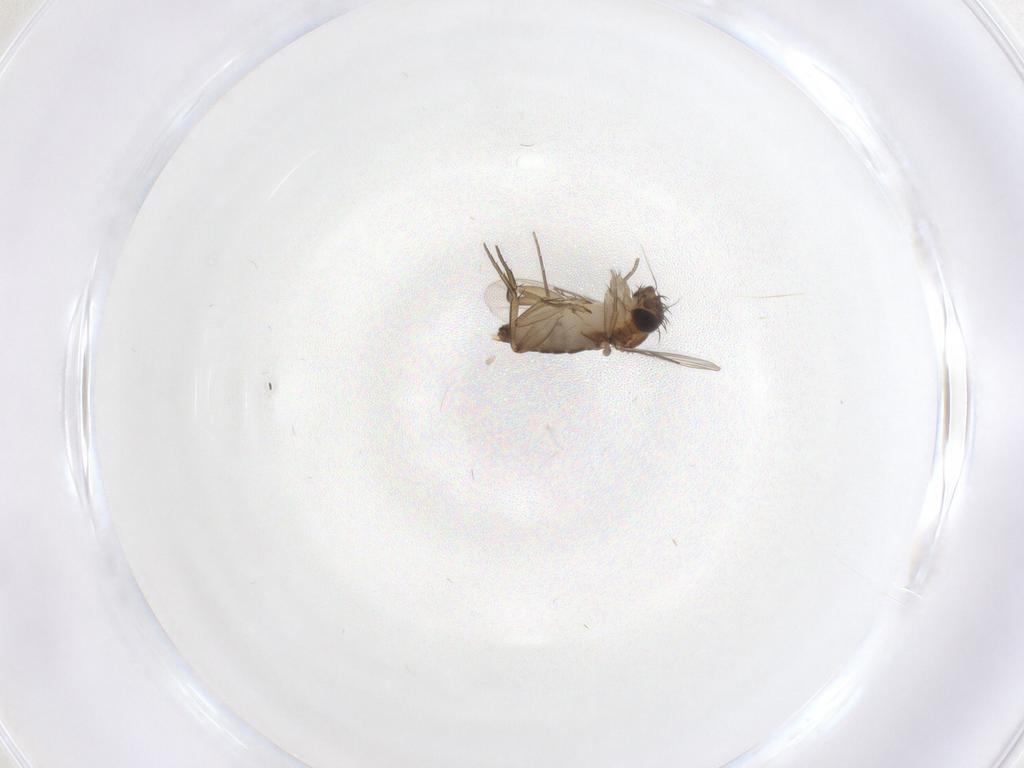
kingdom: Animalia
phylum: Arthropoda
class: Insecta
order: Diptera
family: Phoridae
